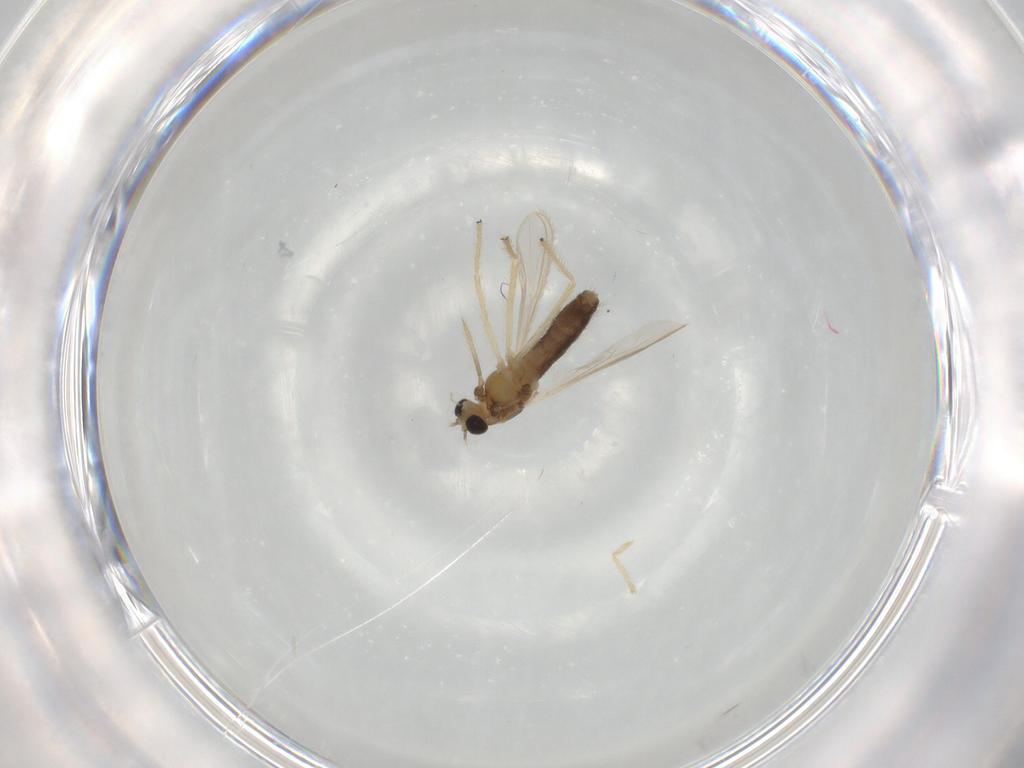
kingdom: Animalia
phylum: Arthropoda
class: Insecta
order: Diptera
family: Chironomidae
